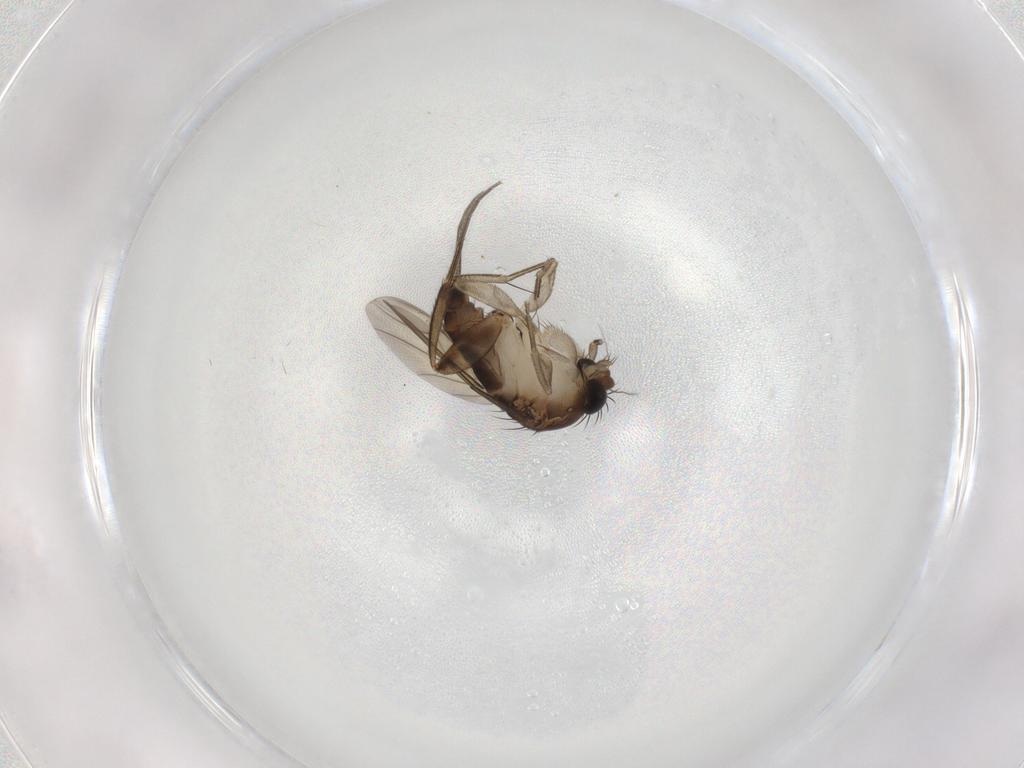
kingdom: Animalia
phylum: Arthropoda
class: Insecta
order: Diptera
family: Phoridae
